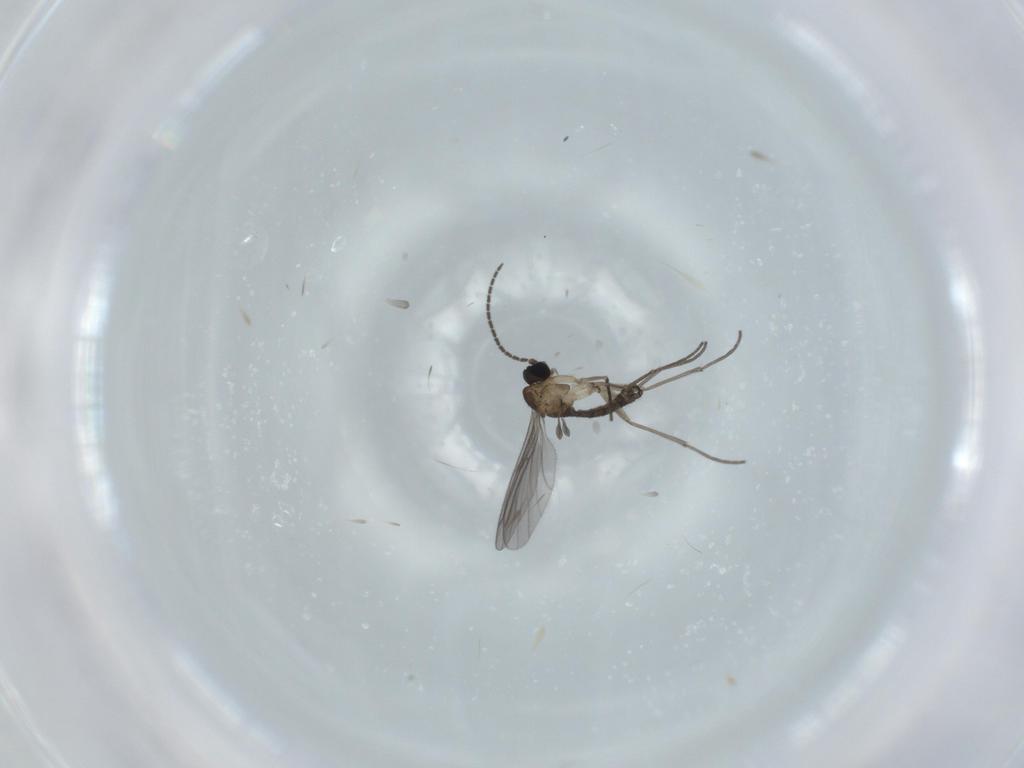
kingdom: Animalia
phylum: Arthropoda
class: Insecta
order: Diptera
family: Sciaridae
